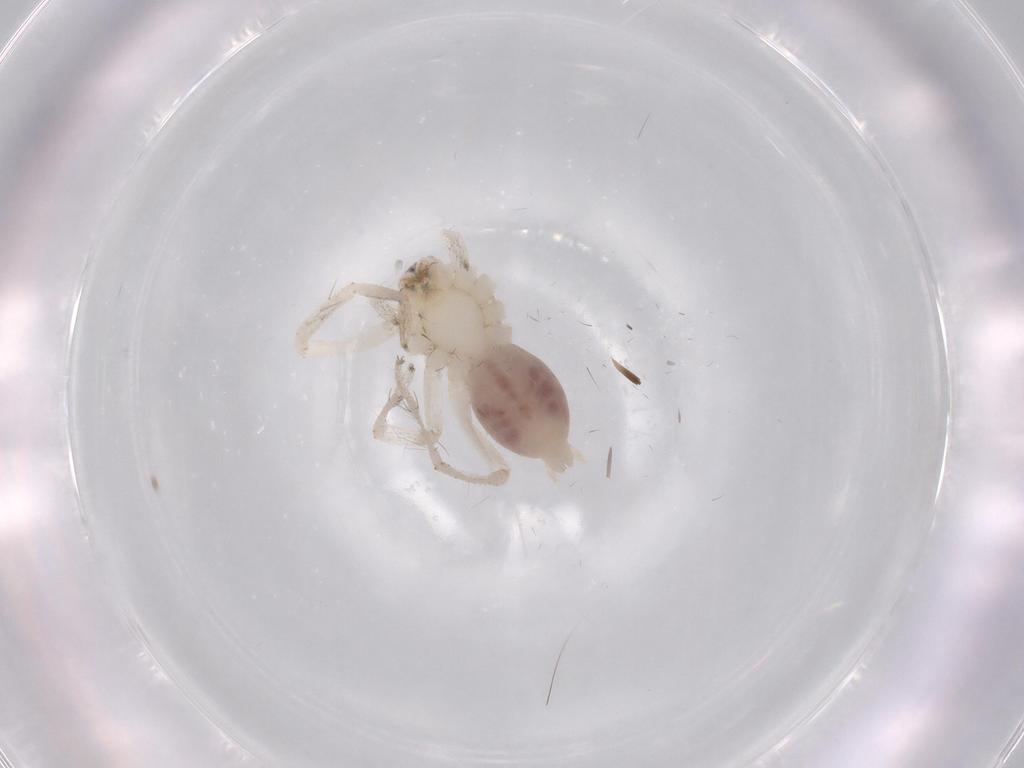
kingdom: Animalia
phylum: Arthropoda
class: Arachnida
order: Araneae
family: Anyphaenidae
